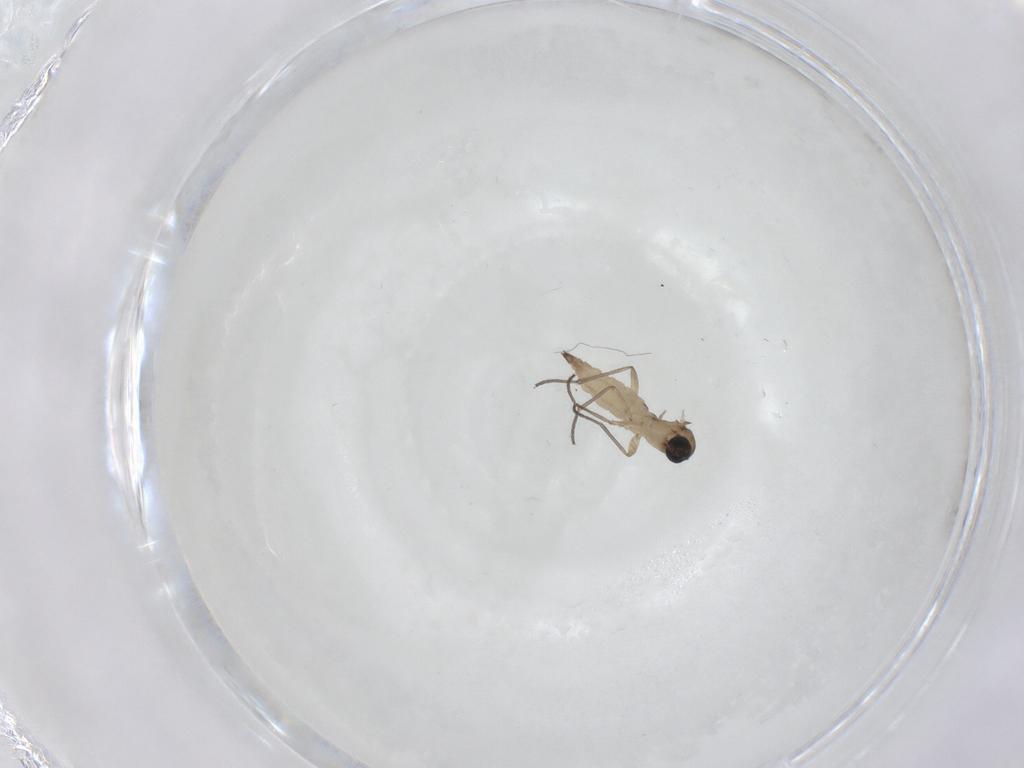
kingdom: Animalia
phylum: Arthropoda
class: Insecta
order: Diptera
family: Sciaridae
